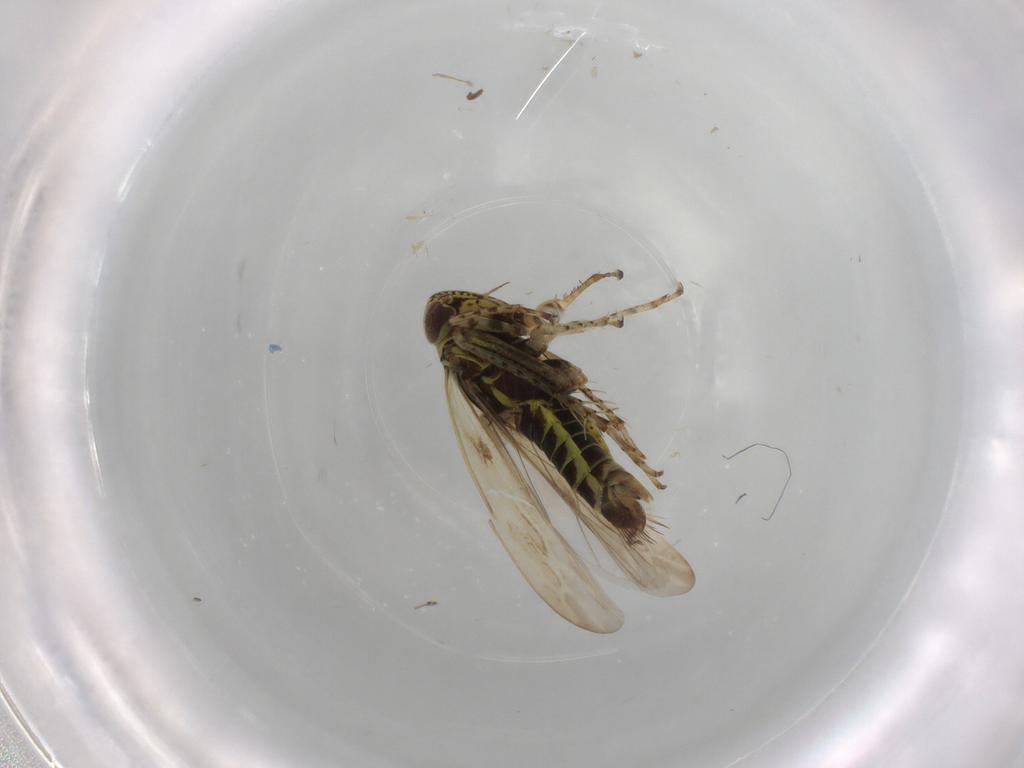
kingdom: Animalia
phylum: Arthropoda
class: Insecta
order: Hemiptera
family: Cicadellidae
